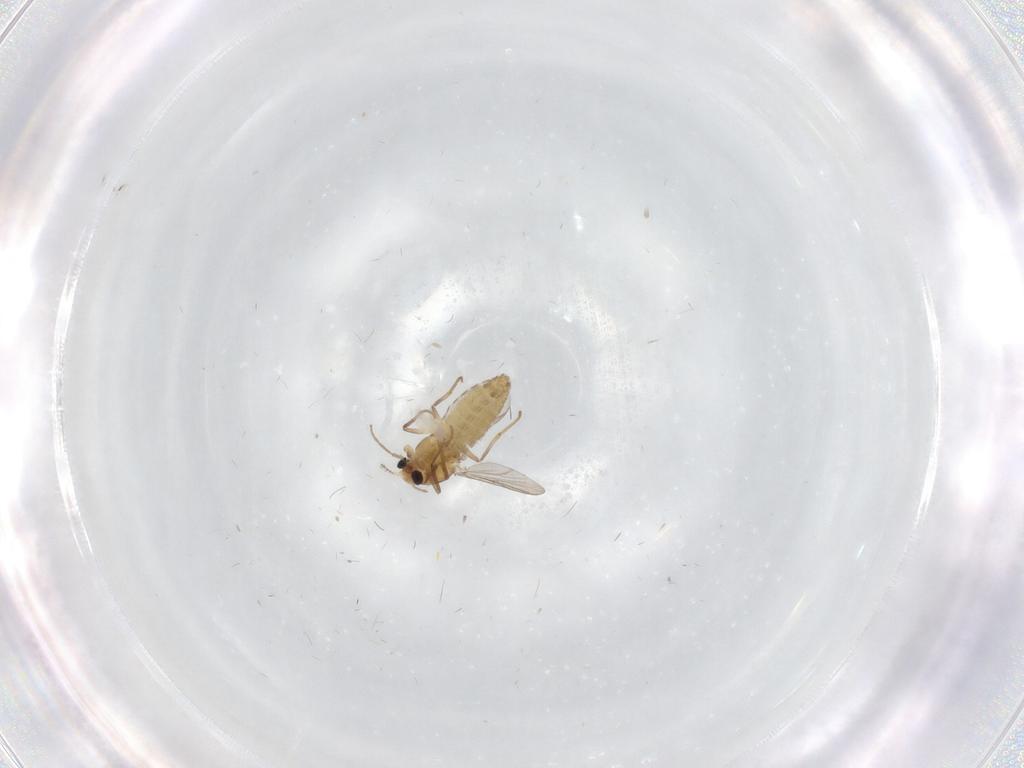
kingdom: Animalia
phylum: Arthropoda
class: Insecta
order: Diptera
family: Chironomidae
